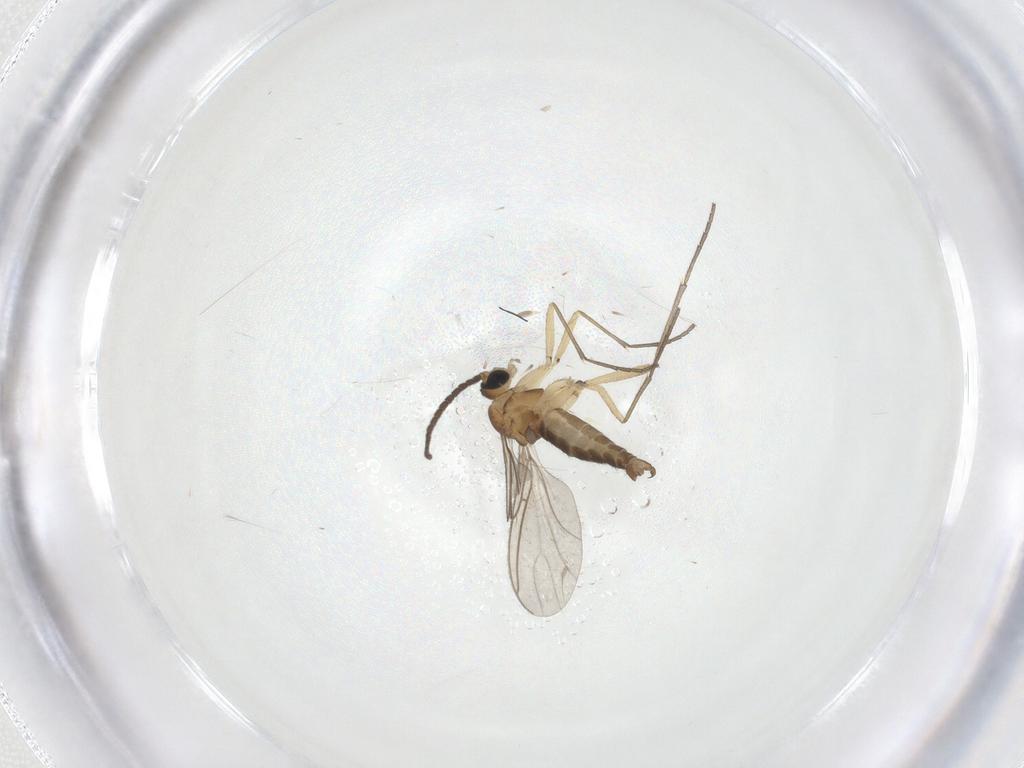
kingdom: Animalia
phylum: Arthropoda
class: Insecta
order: Diptera
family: Sciaridae
